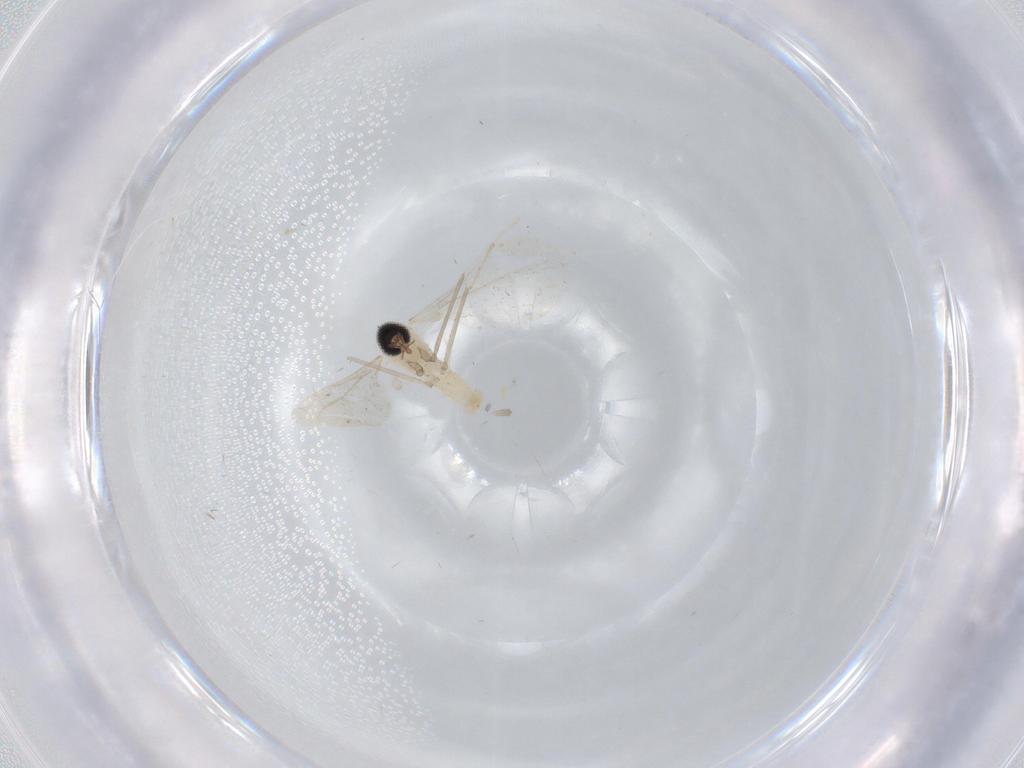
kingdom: Animalia
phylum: Arthropoda
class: Insecta
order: Diptera
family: Cecidomyiidae
